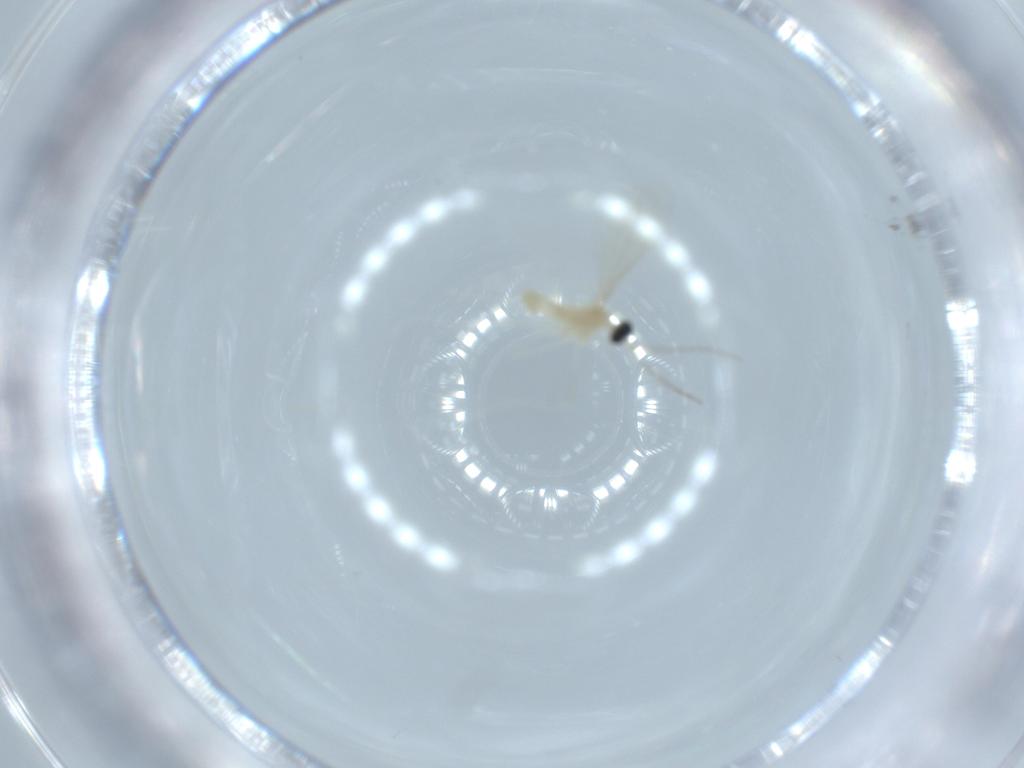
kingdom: Animalia
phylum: Arthropoda
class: Insecta
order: Diptera
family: Cecidomyiidae
